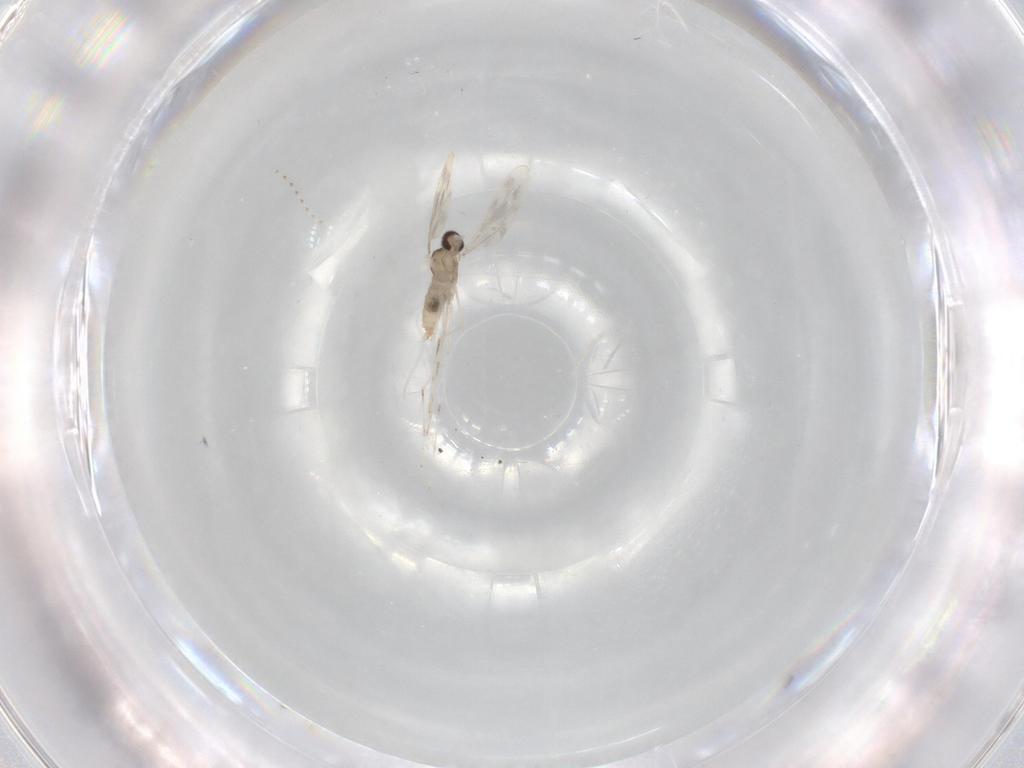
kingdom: Animalia
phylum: Arthropoda
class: Insecta
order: Diptera
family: Cecidomyiidae
